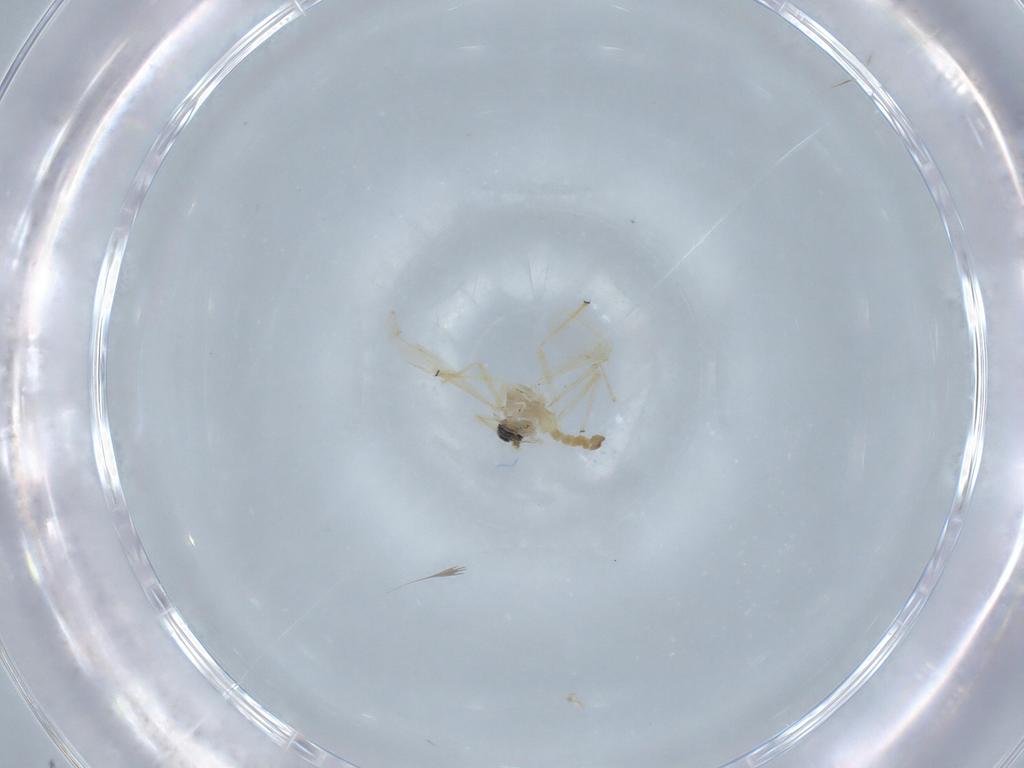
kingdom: Animalia
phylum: Arthropoda
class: Insecta
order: Diptera
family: Chironomidae
